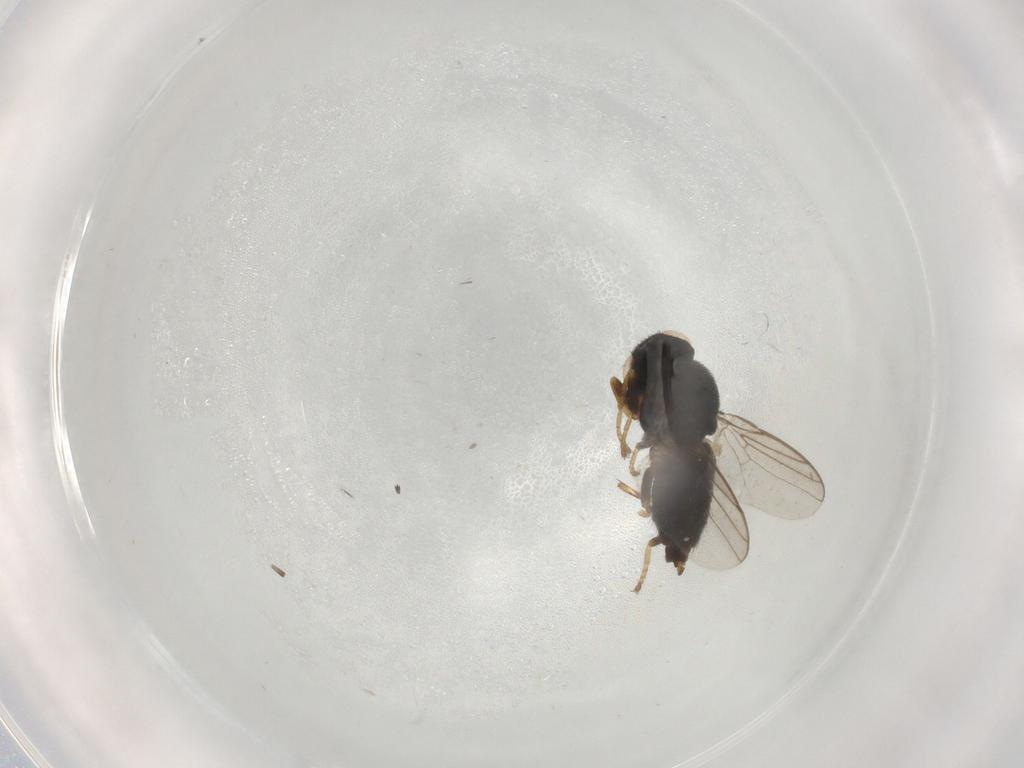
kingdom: Animalia
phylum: Arthropoda
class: Insecta
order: Diptera
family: Chloropidae
